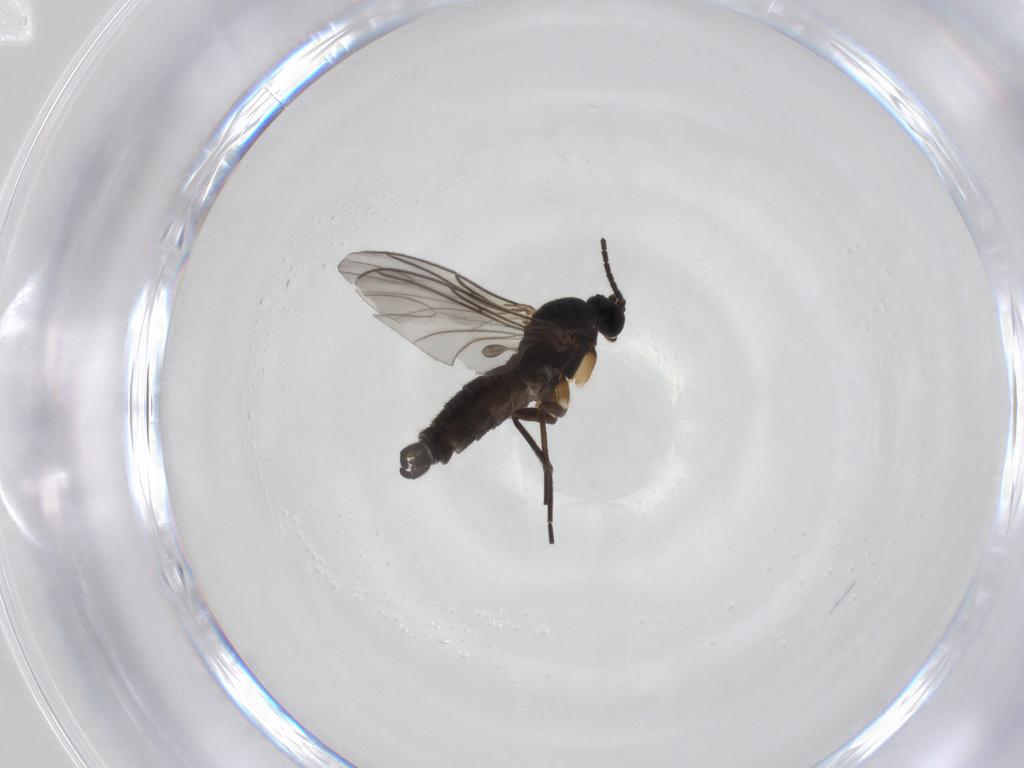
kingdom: Animalia
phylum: Arthropoda
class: Insecta
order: Diptera
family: Sciaridae
